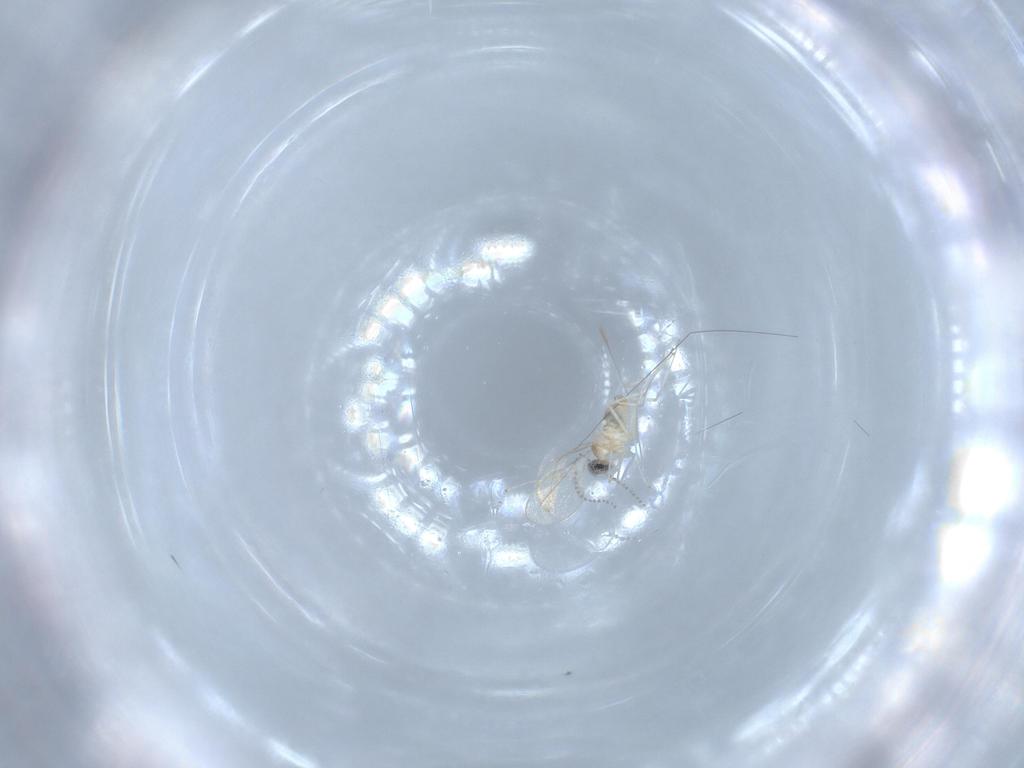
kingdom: Animalia
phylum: Arthropoda
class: Insecta
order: Diptera
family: Cecidomyiidae
